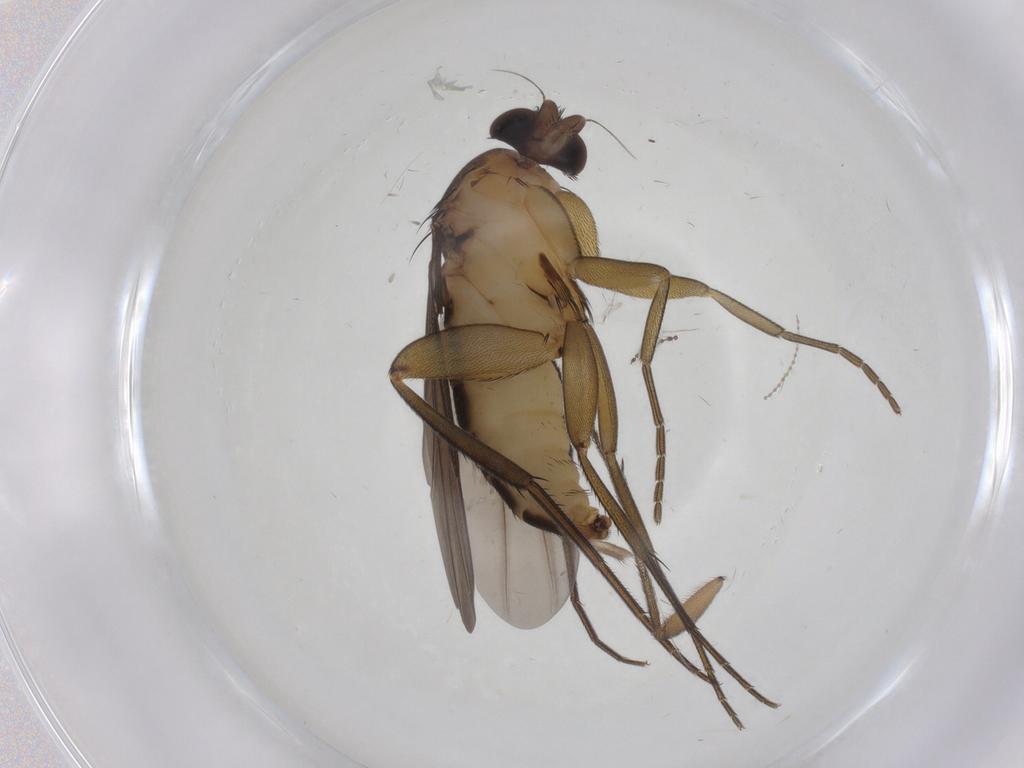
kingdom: Animalia
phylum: Arthropoda
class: Insecta
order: Diptera
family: Phoridae
